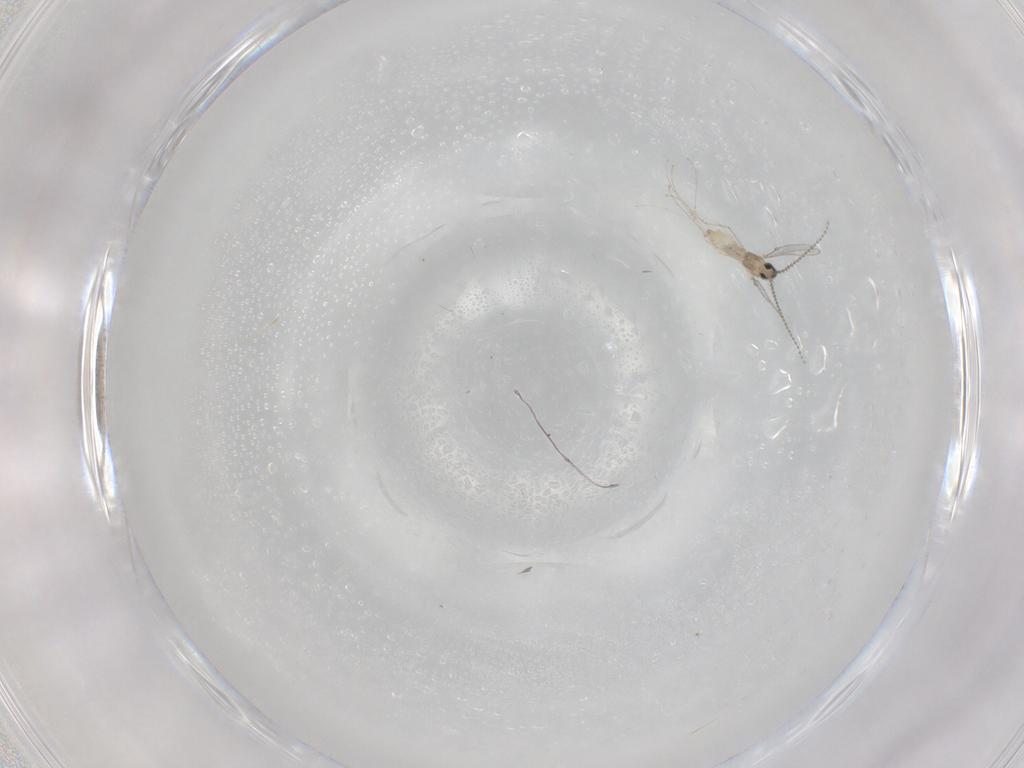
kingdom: Animalia
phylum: Arthropoda
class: Insecta
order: Diptera
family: Cecidomyiidae
